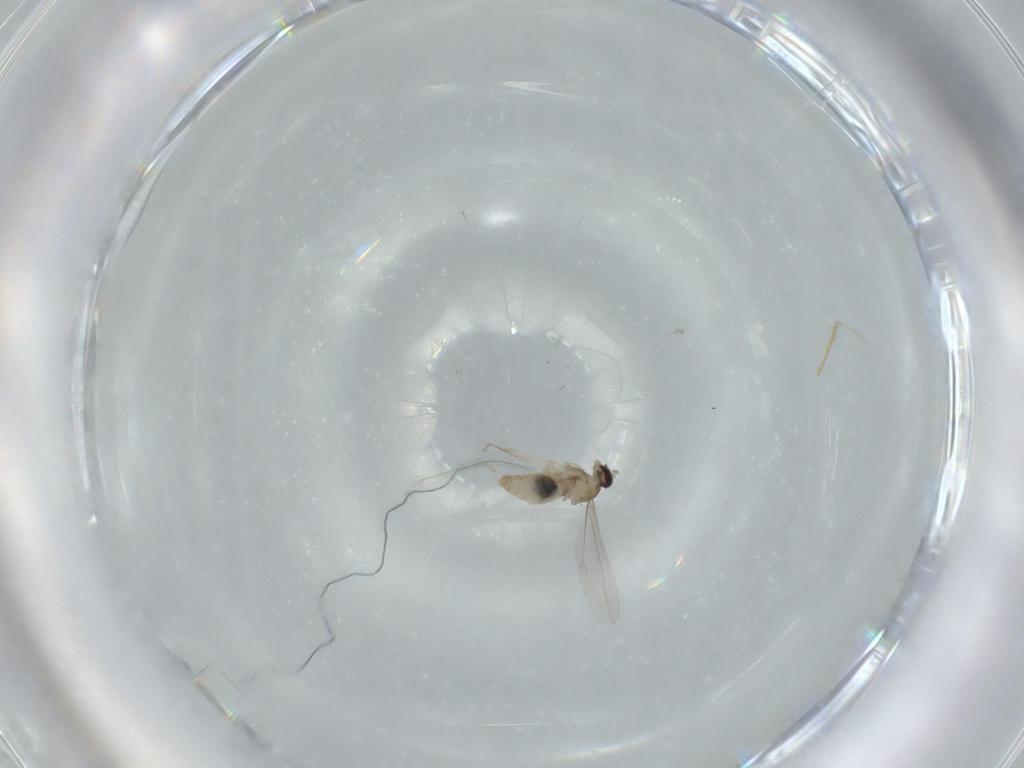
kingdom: Animalia
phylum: Arthropoda
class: Insecta
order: Diptera
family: Cecidomyiidae
